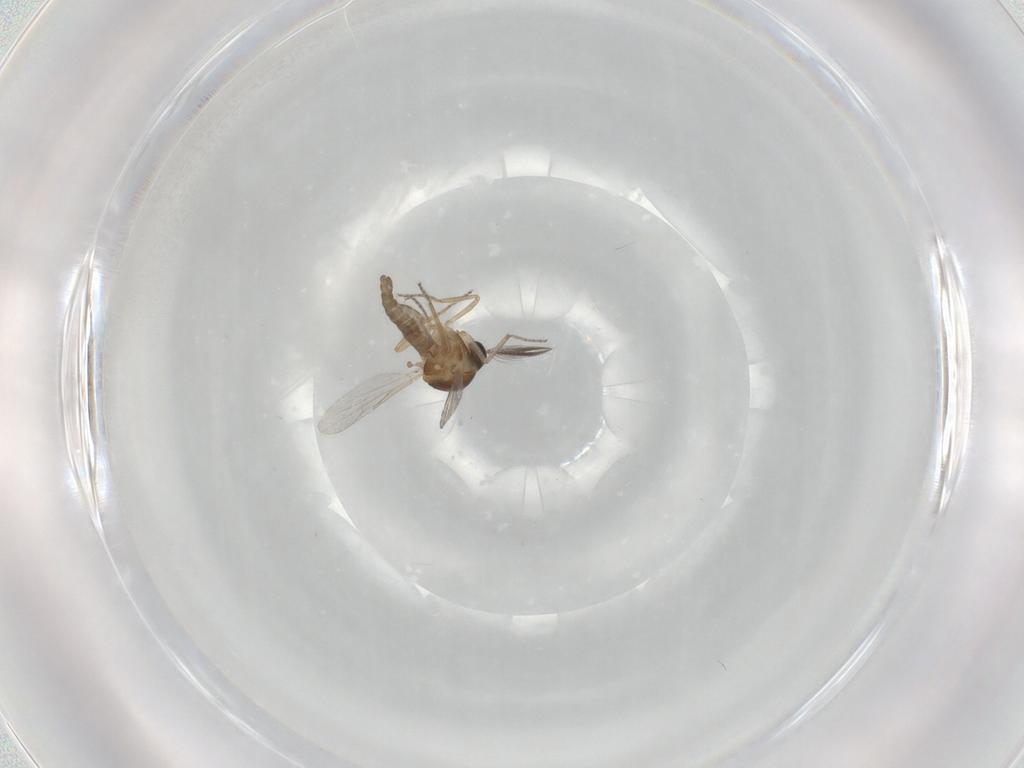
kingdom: Animalia
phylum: Arthropoda
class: Insecta
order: Diptera
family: Ceratopogonidae
